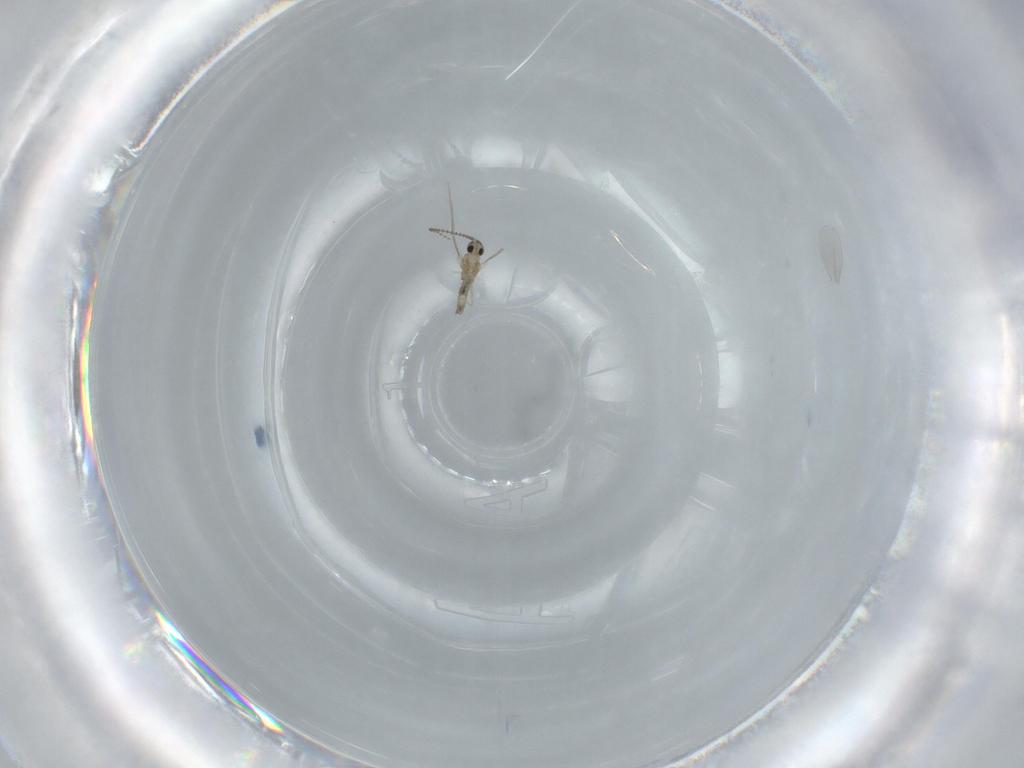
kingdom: Animalia
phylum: Arthropoda
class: Insecta
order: Diptera
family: Cecidomyiidae
